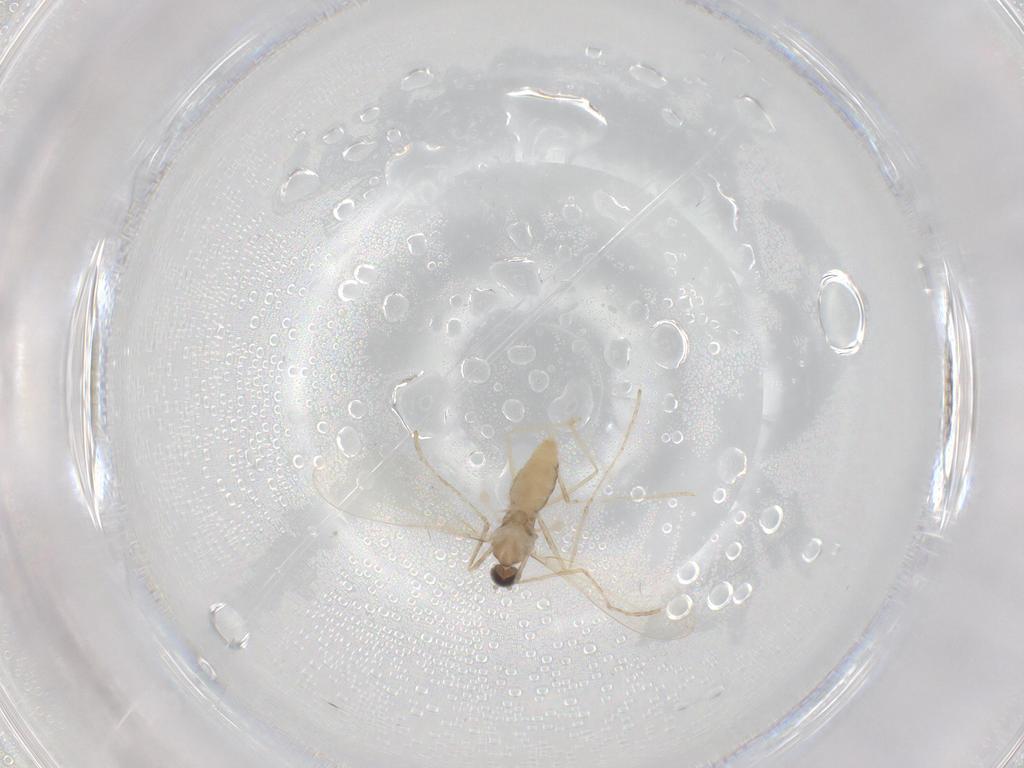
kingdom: Animalia
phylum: Arthropoda
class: Insecta
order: Diptera
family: Cecidomyiidae
